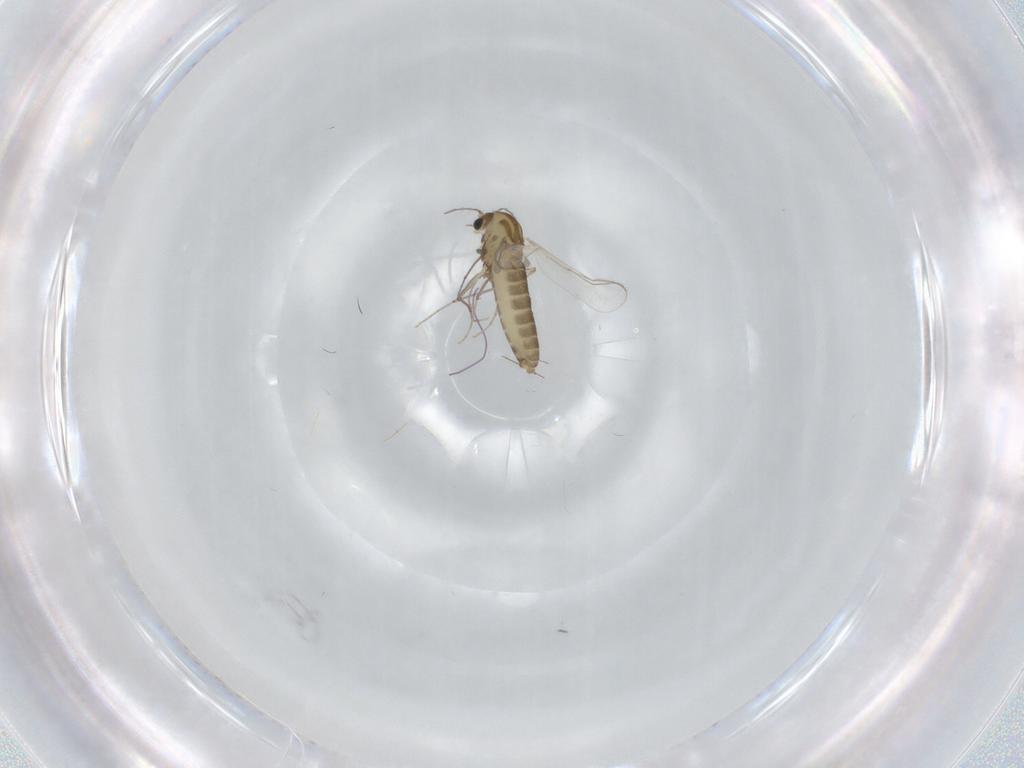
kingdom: Animalia
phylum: Arthropoda
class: Insecta
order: Diptera
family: Chironomidae
